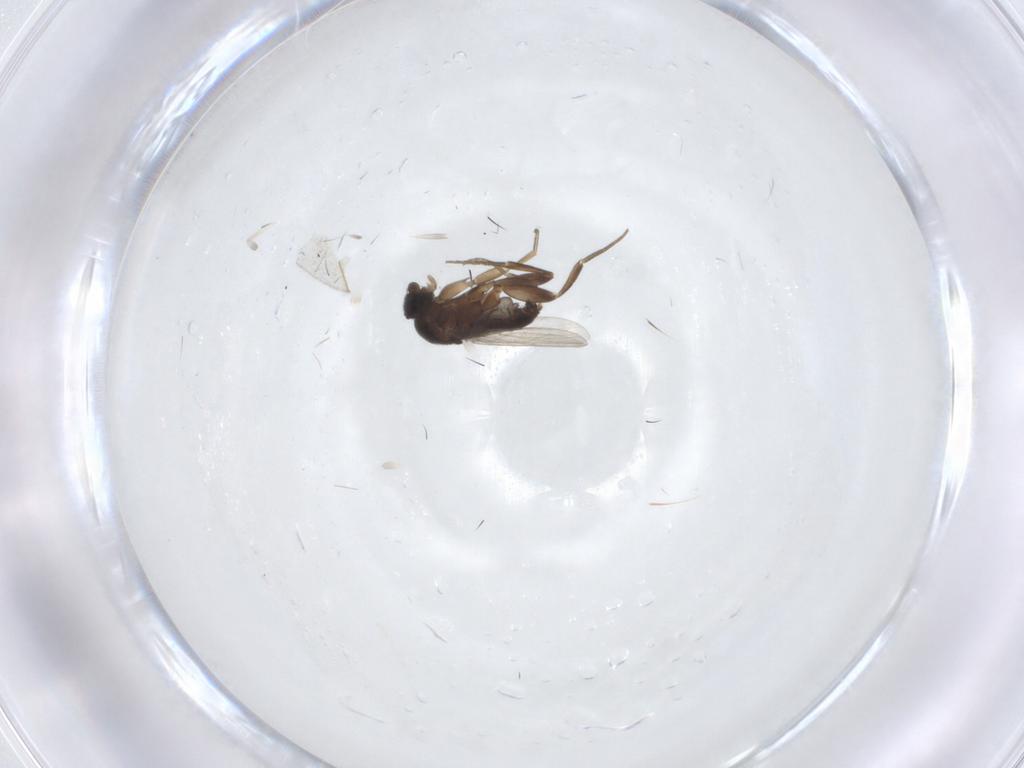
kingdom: Animalia
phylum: Arthropoda
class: Insecta
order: Diptera
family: Phoridae
